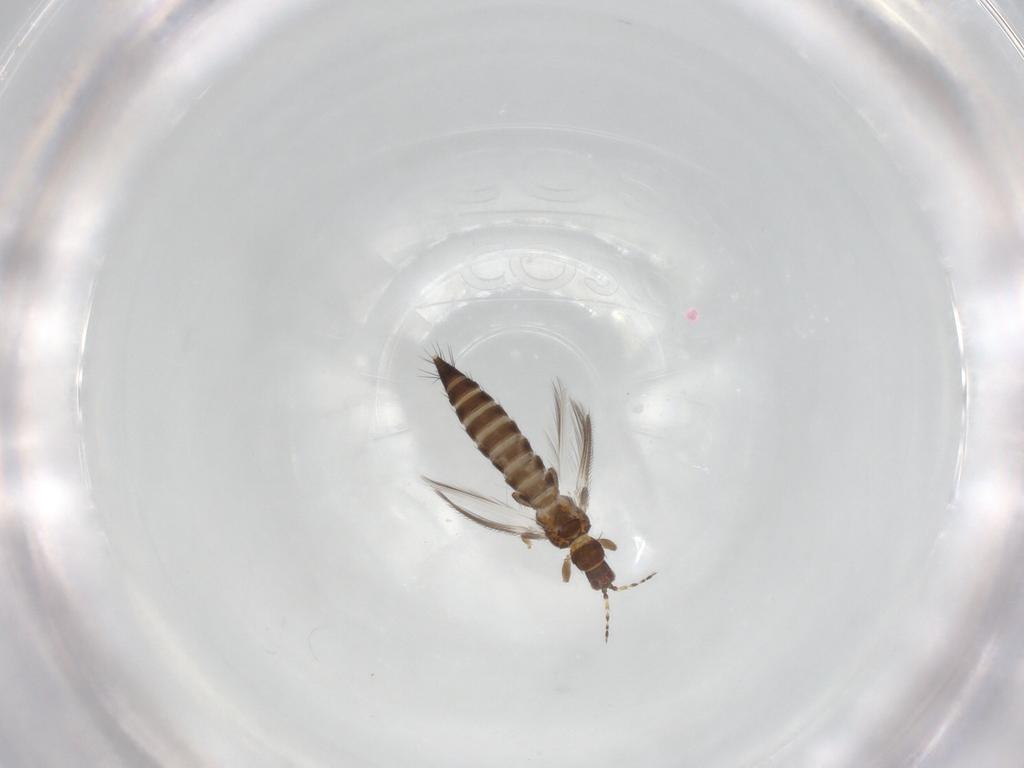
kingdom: Animalia
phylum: Arthropoda
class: Insecta
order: Thysanoptera
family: Thripidae
